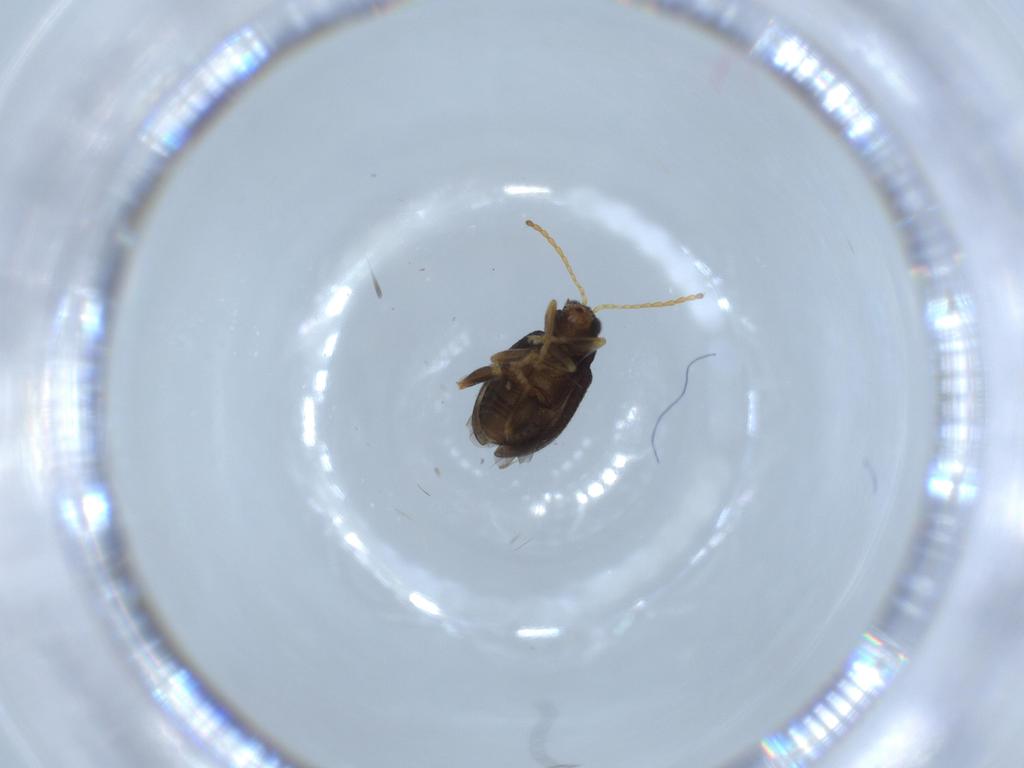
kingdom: Animalia
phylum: Arthropoda
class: Insecta
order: Coleoptera
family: Chrysomelidae
